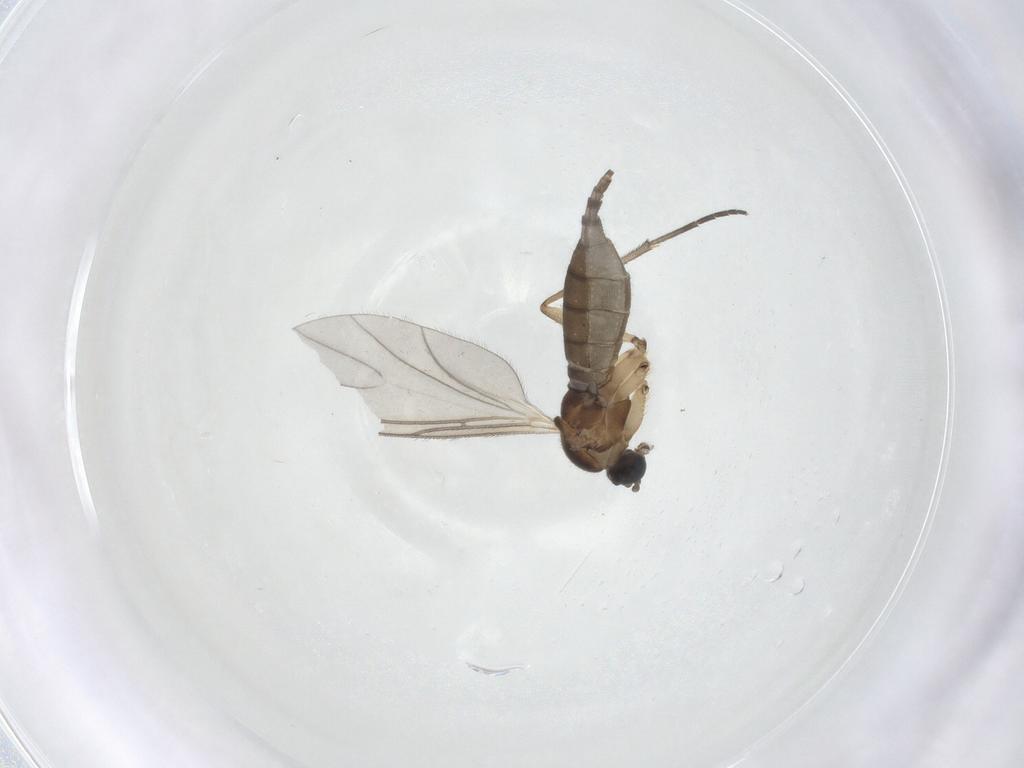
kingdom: Animalia
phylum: Arthropoda
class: Insecta
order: Diptera
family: Sciaridae
